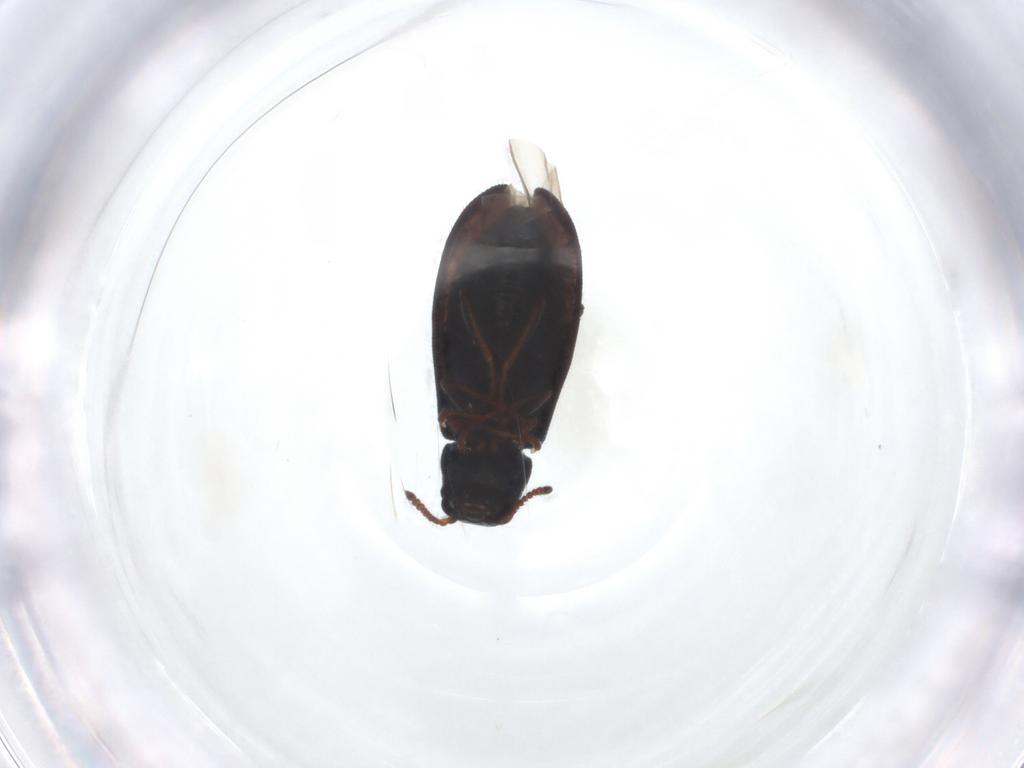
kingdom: Animalia
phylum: Arthropoda
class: Insecta
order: Coleoptera
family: Melyridae
